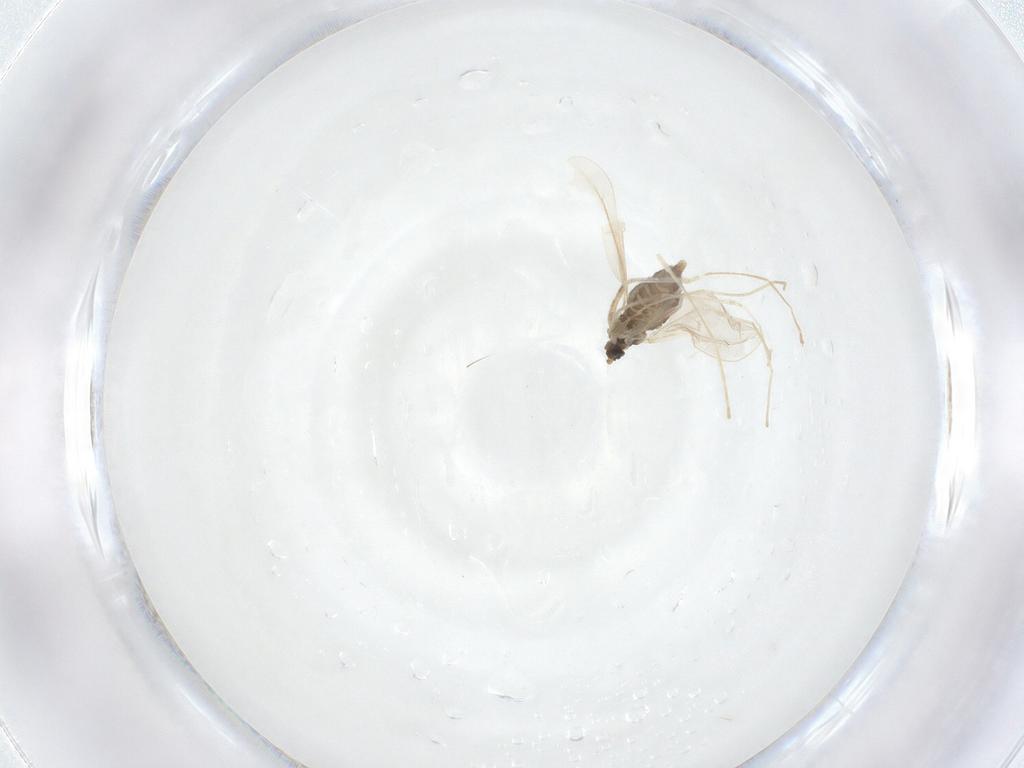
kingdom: Animalia
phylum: Arthropoda
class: Insecta
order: Diptera
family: Cecidomyiidae
